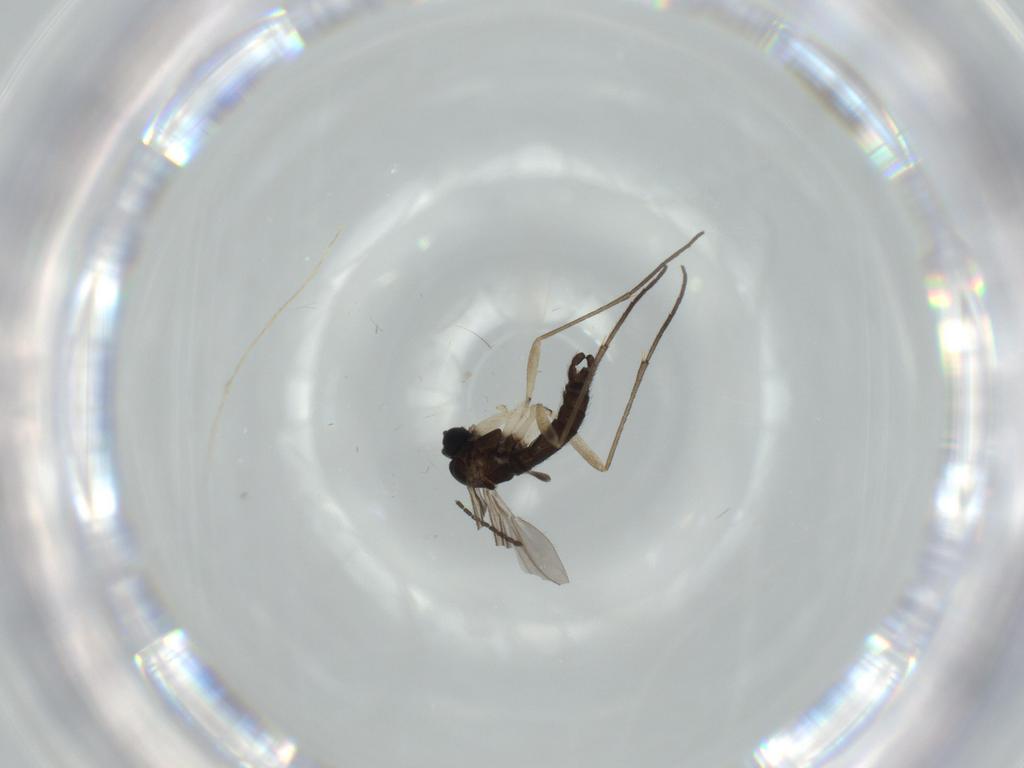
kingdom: Animalia
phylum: Arthropoda
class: Insecta
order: Diptera
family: Sciaridae
